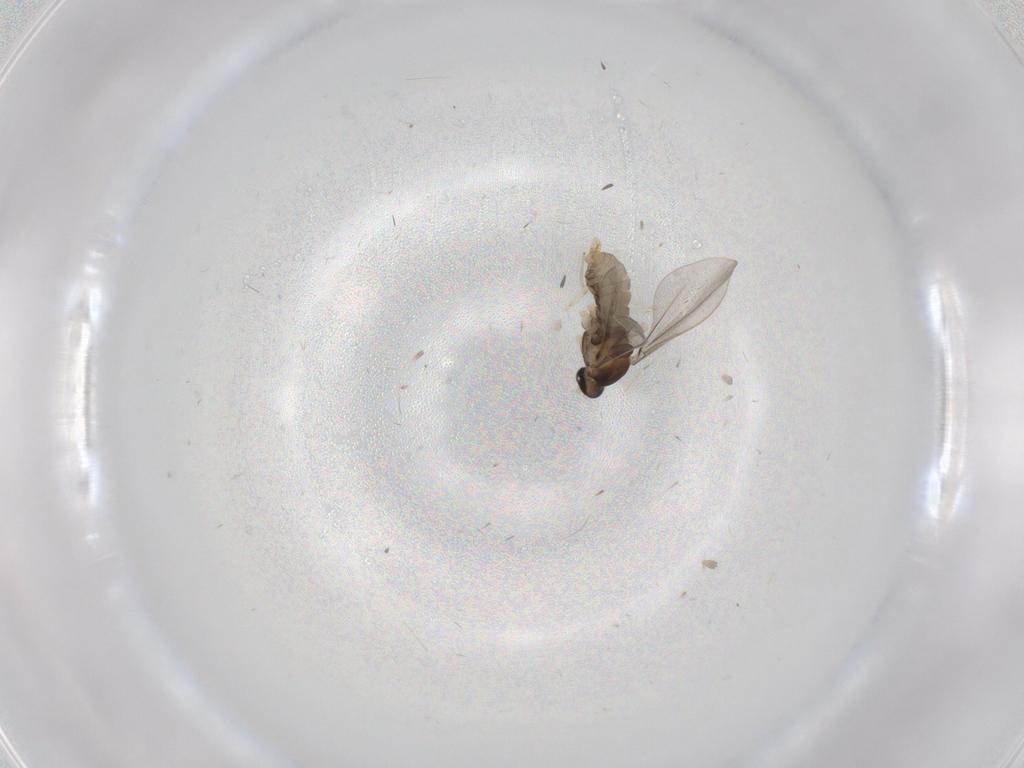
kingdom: Animalia
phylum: Arthropoda
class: Insecta
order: Diptera
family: Cecidomyiidae
